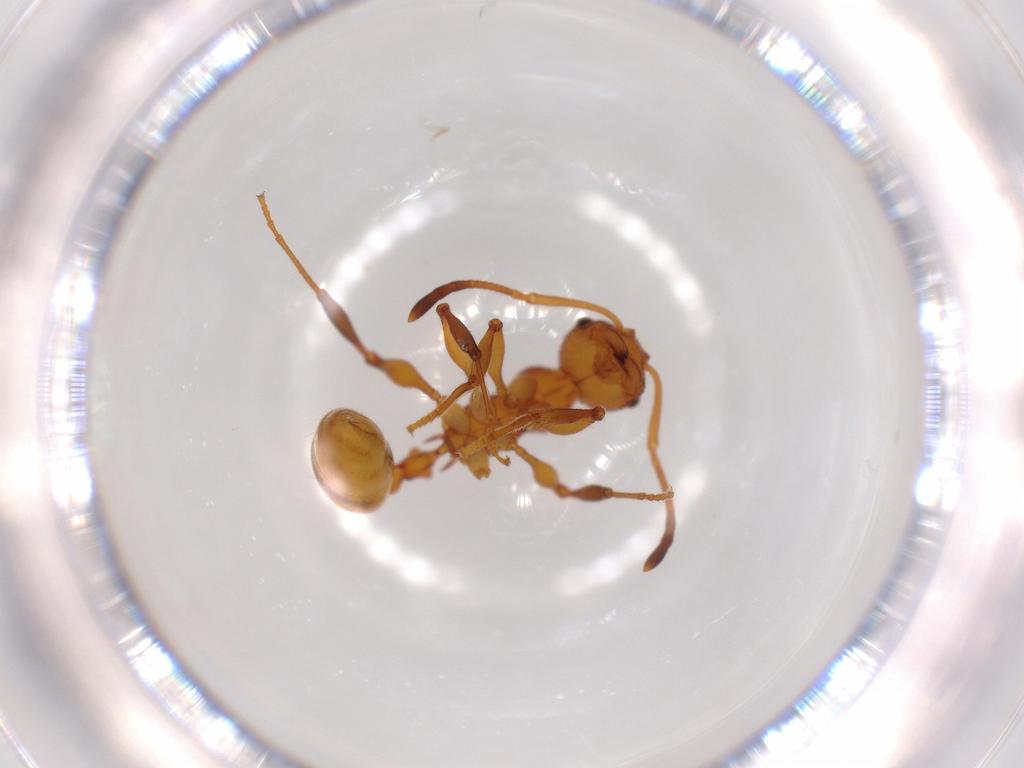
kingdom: Animalia
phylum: Arthropoda
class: Insecta
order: Hymenoptera
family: Formicidae
